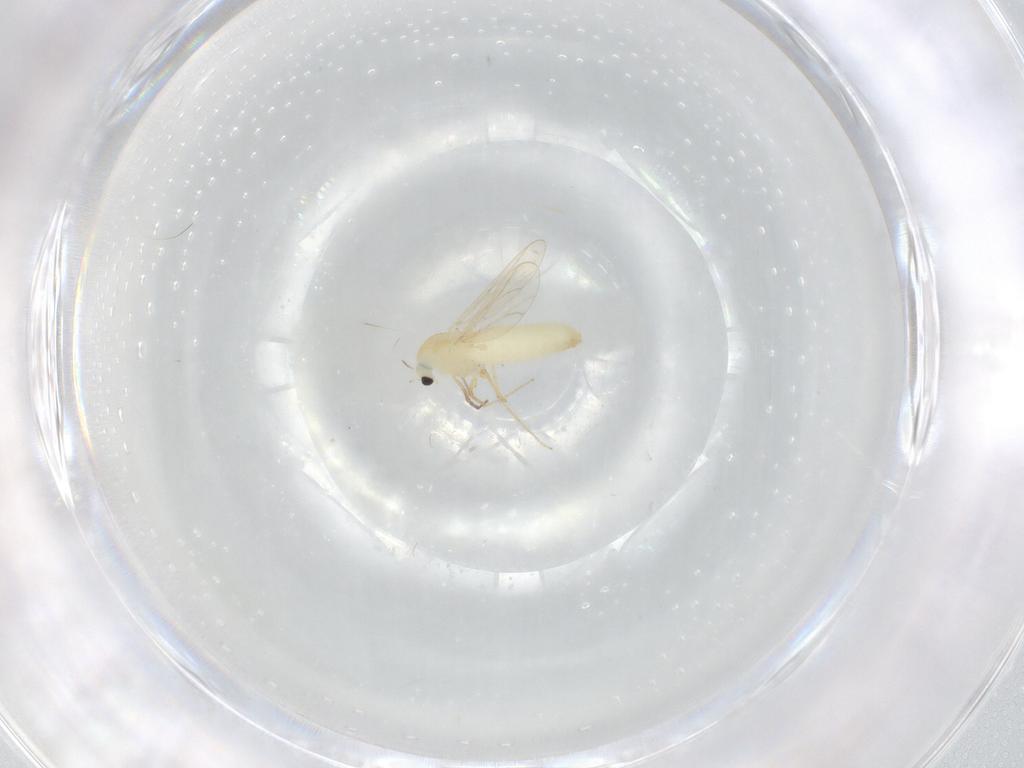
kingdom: Animalia
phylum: Arthropoda
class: Insecta
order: Diptera
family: Chironomidae
